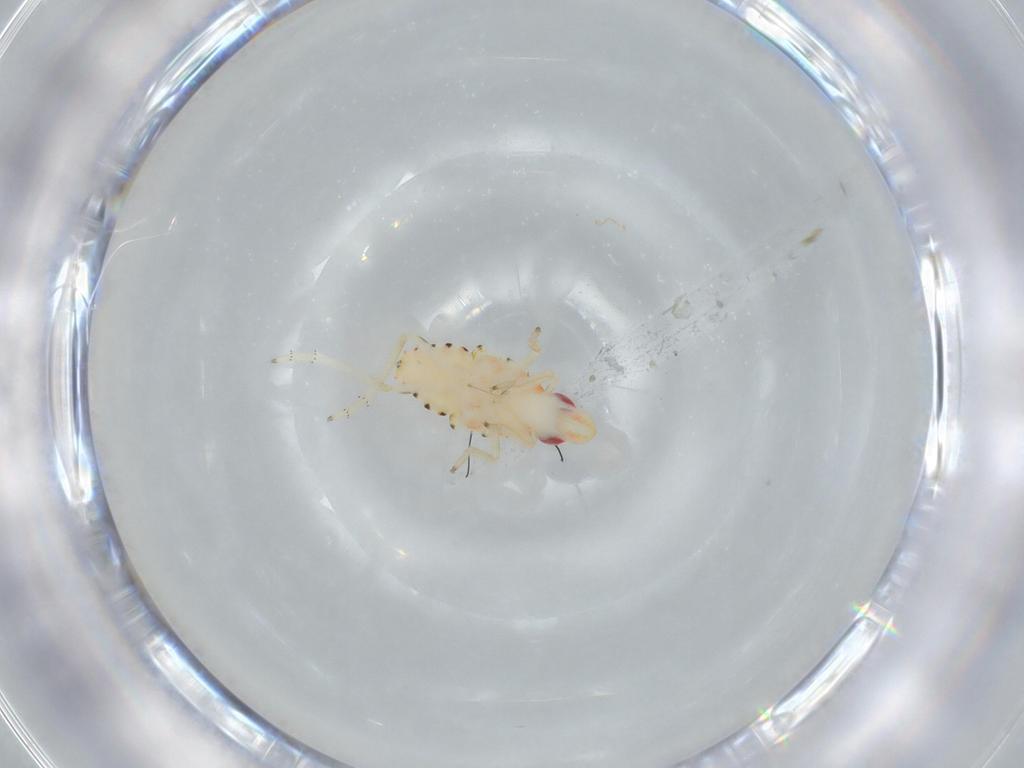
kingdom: Animalia
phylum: Arthropoda
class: Insecta
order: Hemiptera
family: Tropiduchidae
